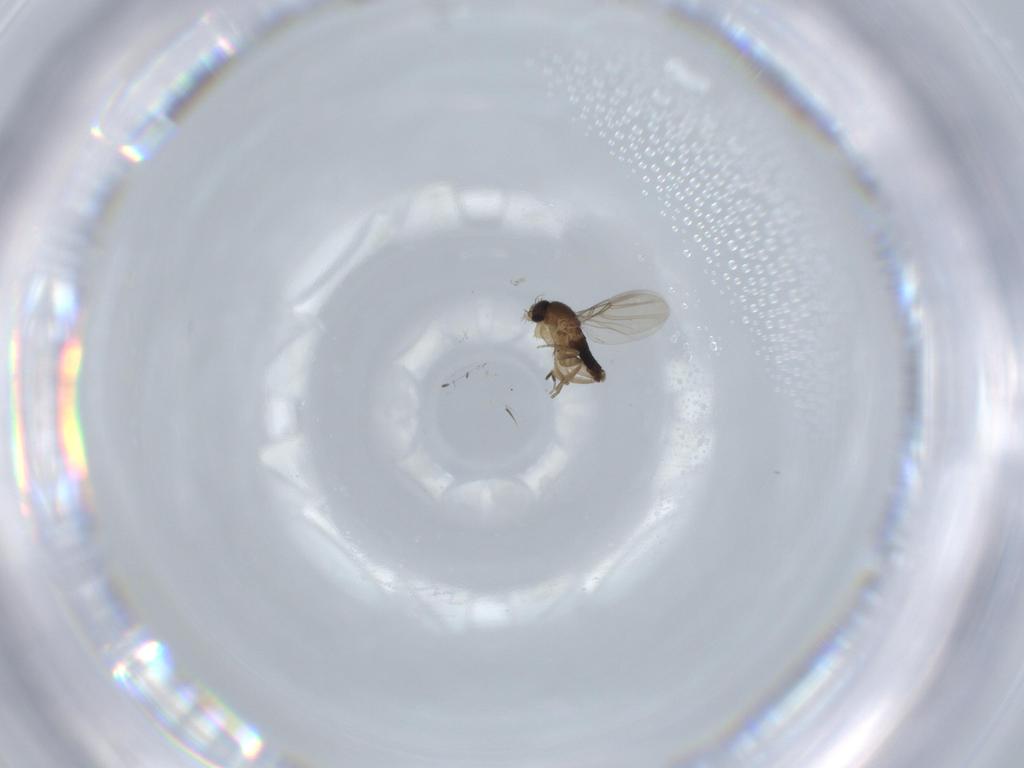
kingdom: Animalia
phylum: Arthropoda
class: Insecta
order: Diptera
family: Phoridae
